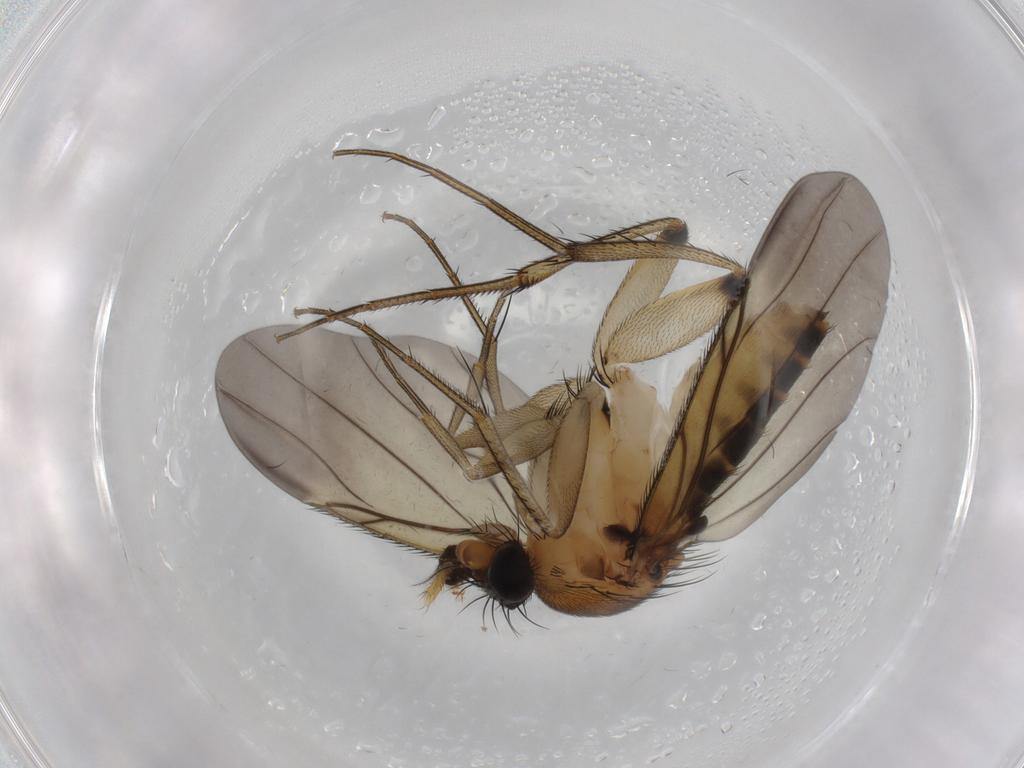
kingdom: Animalia
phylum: Arthropoda
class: Insecta
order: Diptera
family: Phoridae
